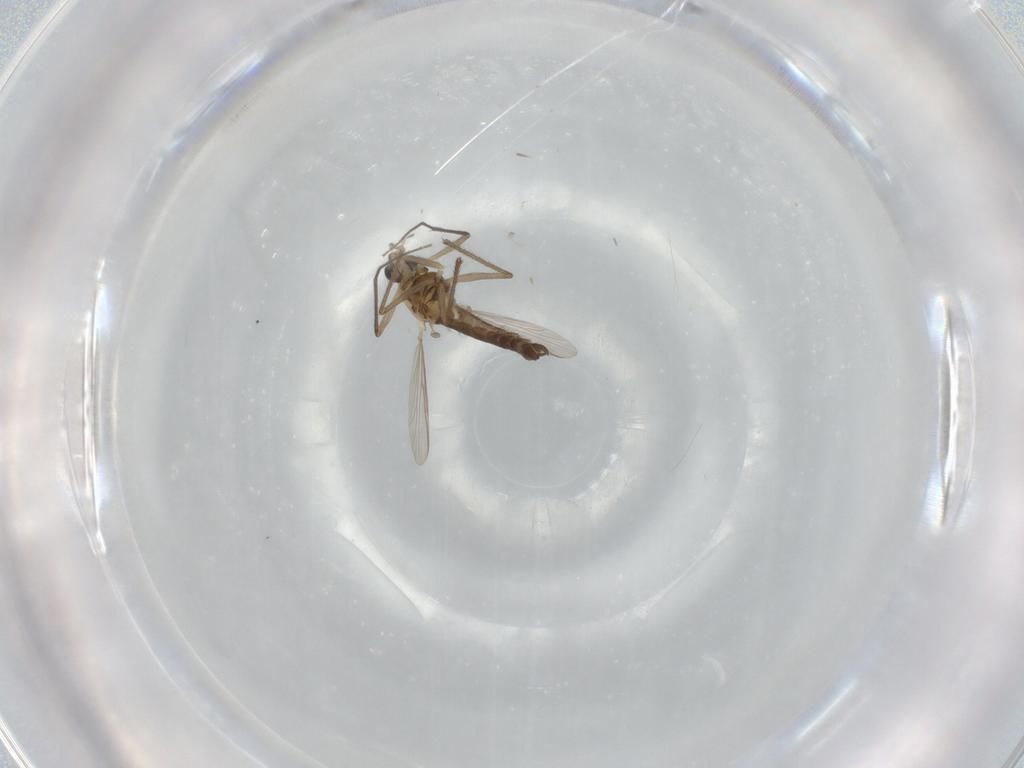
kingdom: Animalia
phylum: Arthropoda
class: Insecta
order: Diptera
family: Chironomidae
